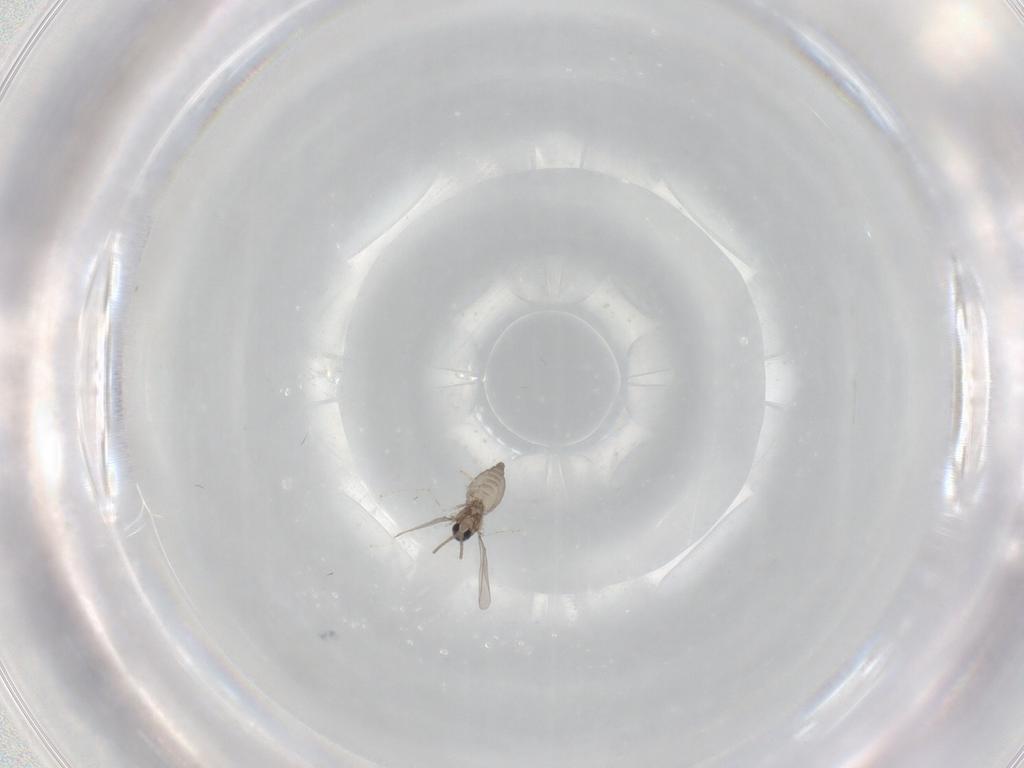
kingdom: Animalia
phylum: Arthropoda
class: Insecta
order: Diptera
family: Cecidomyiidae
